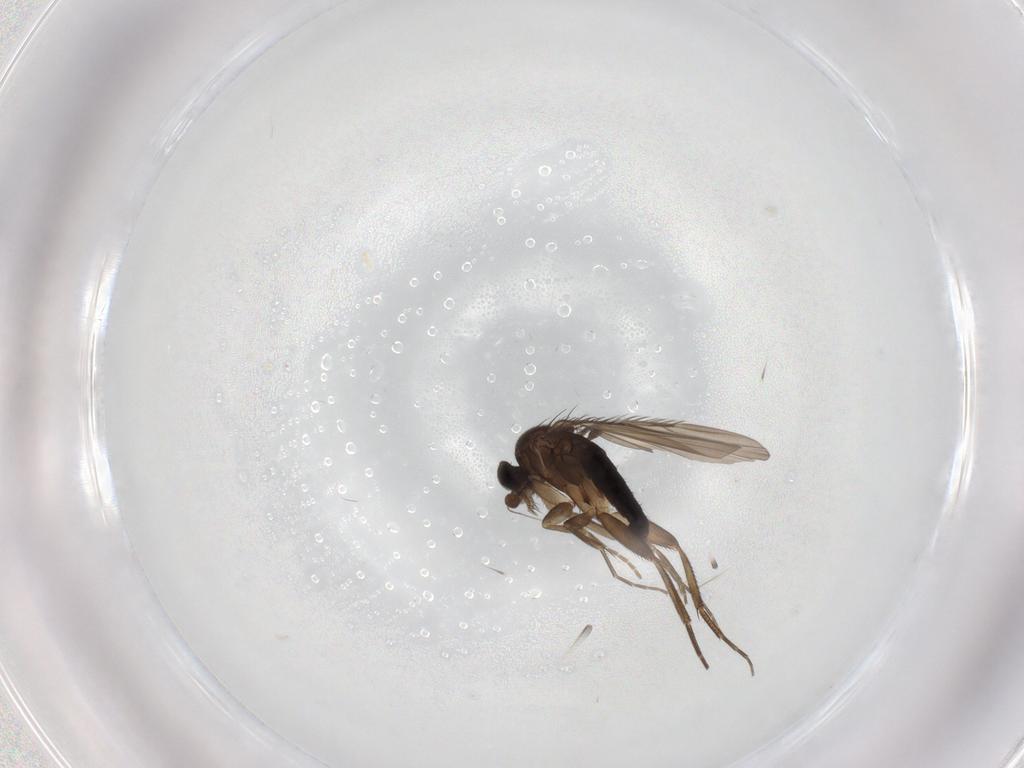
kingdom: Animalia
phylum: Arthropoda
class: Insecta
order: Diptera
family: Phoridae
